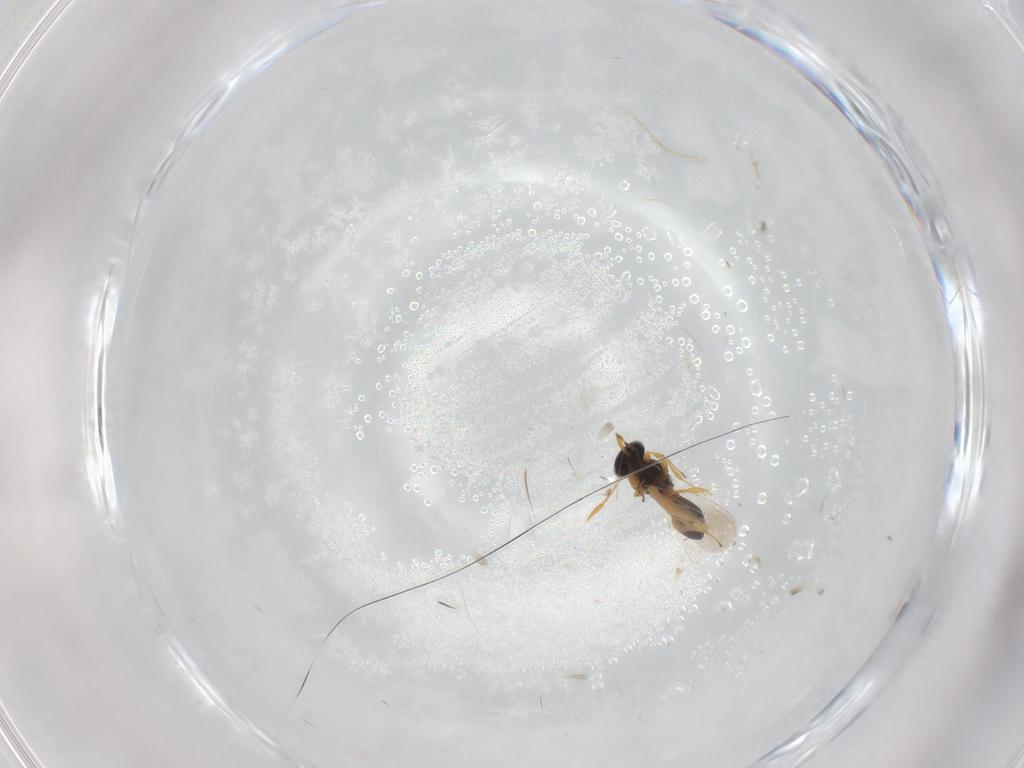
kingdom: Animalia
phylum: Arthropoda
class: Insecta
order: Hymenoptera
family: Platygastridae
